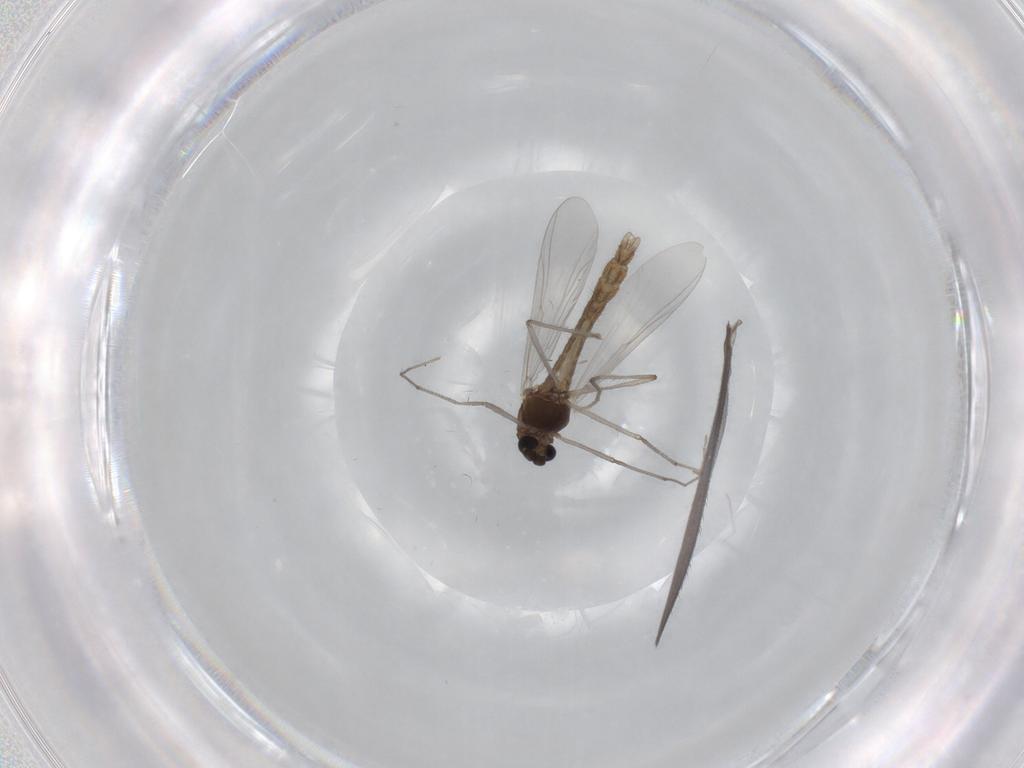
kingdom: Animalia
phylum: Arthropoda
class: Insecta
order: Diptera
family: Chironomidae
